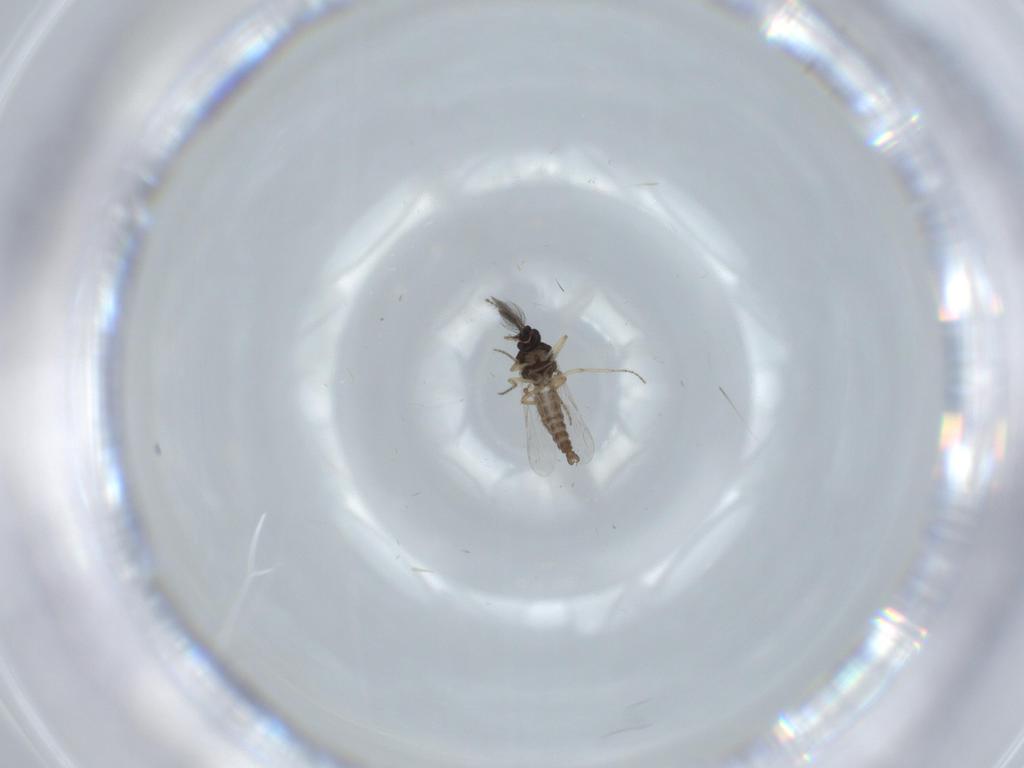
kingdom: Animalia
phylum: Arthropoda
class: Insecta
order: Diptera
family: Ceratopogonidae
